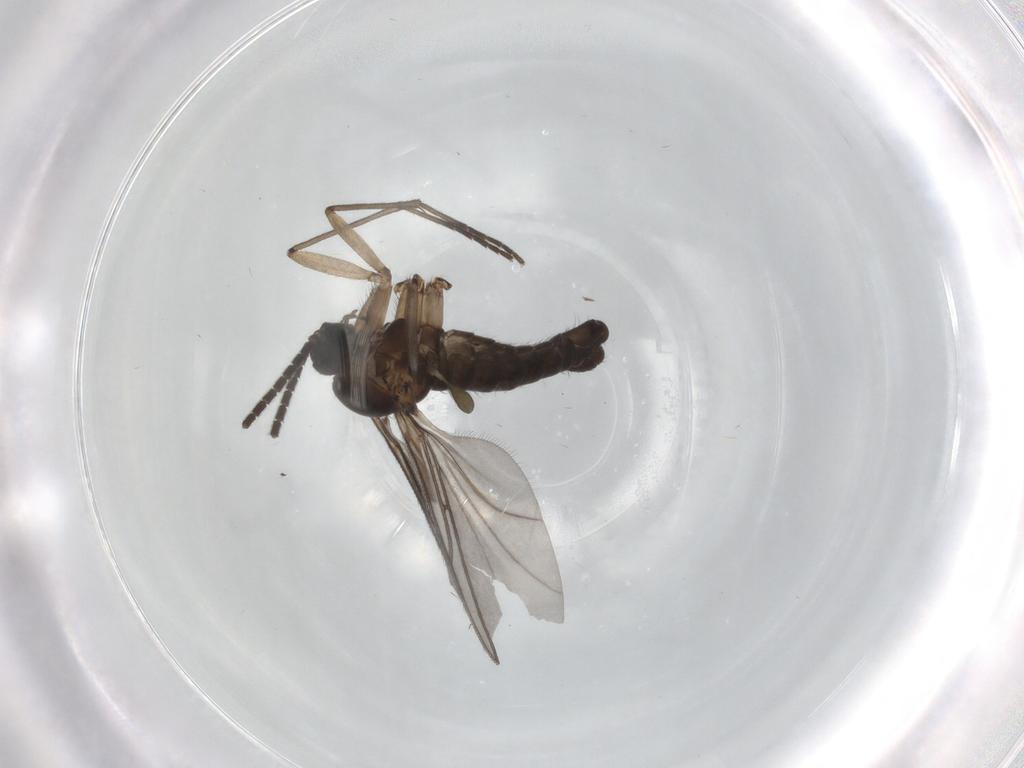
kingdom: Animalia
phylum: Arthropoda
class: Insecta
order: Diptera
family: Sciaridae
